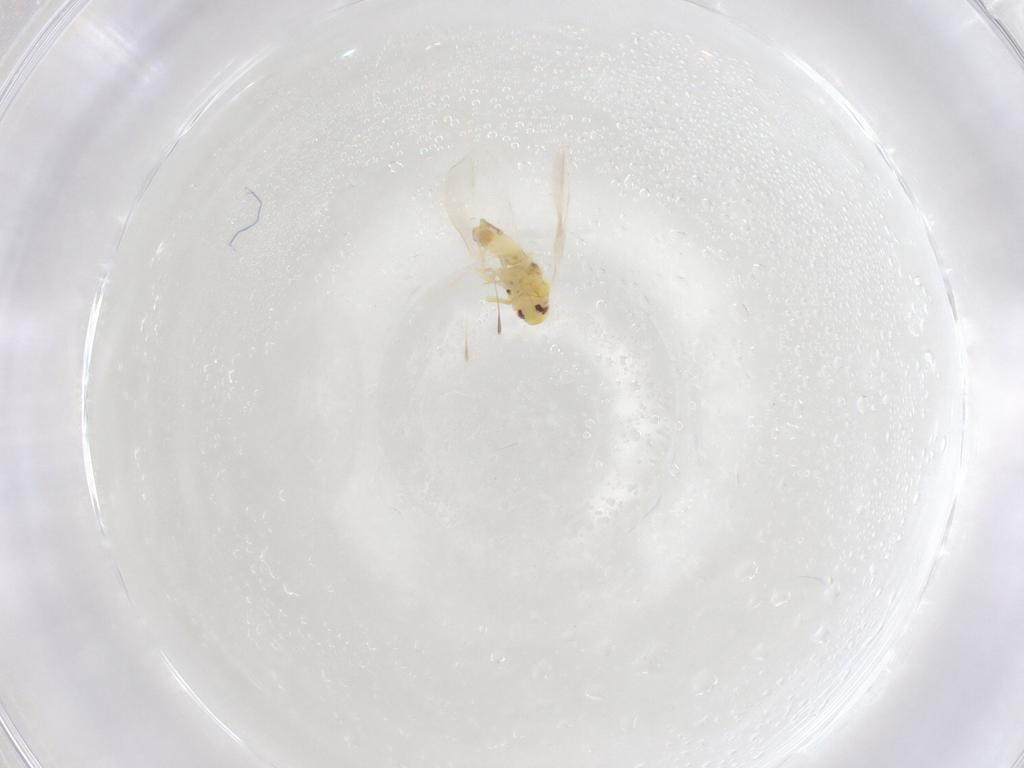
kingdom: Animalia
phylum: Arthropoda
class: Insecta
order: Hemiptera
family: Aleyrodidae
